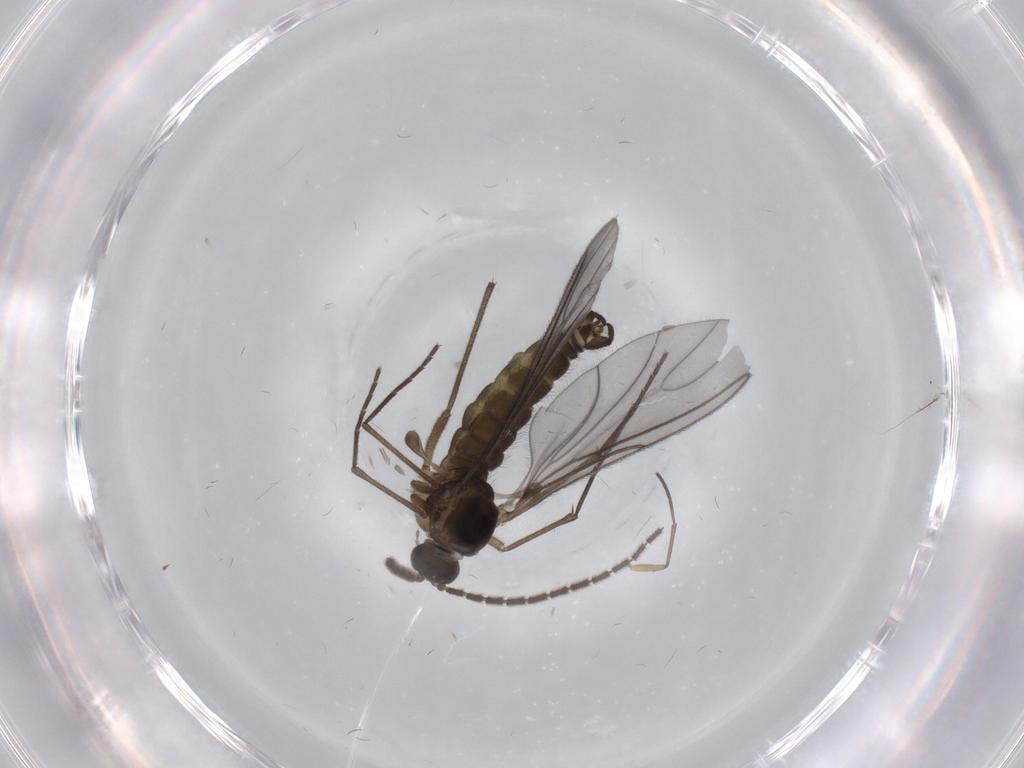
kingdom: Animalia
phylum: Arthropoda
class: Insecta
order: Diptera
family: Sciaridae
